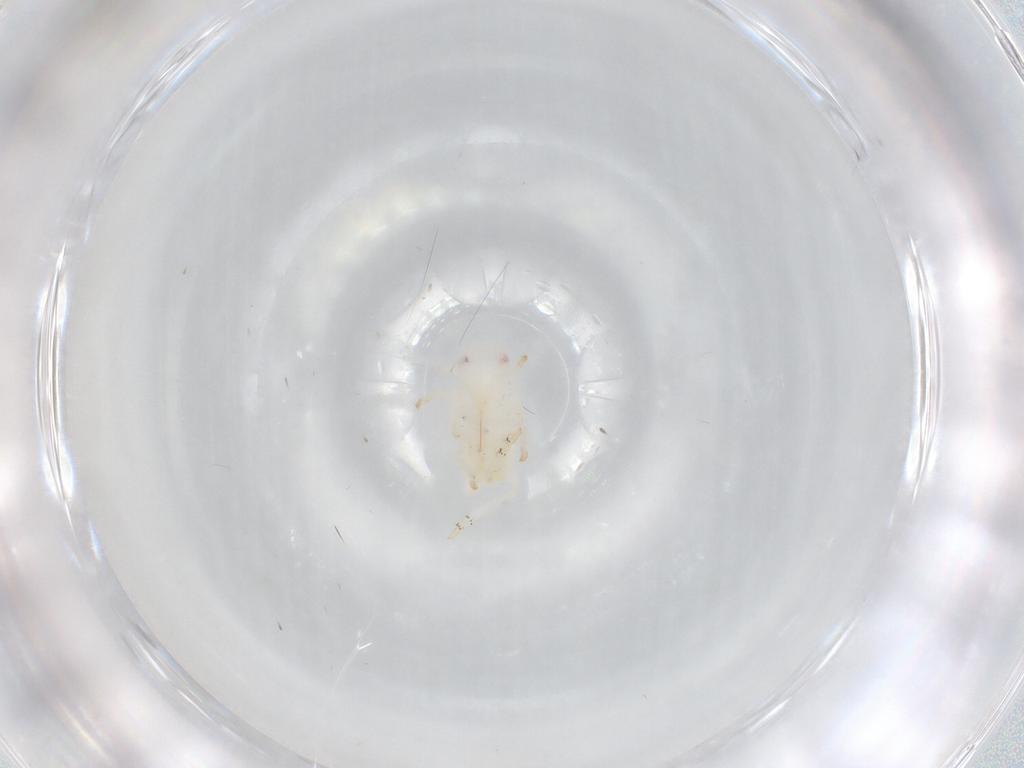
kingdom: Animalia
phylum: Arthropoda
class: Insecta
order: Hemiptera
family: Flatidae
